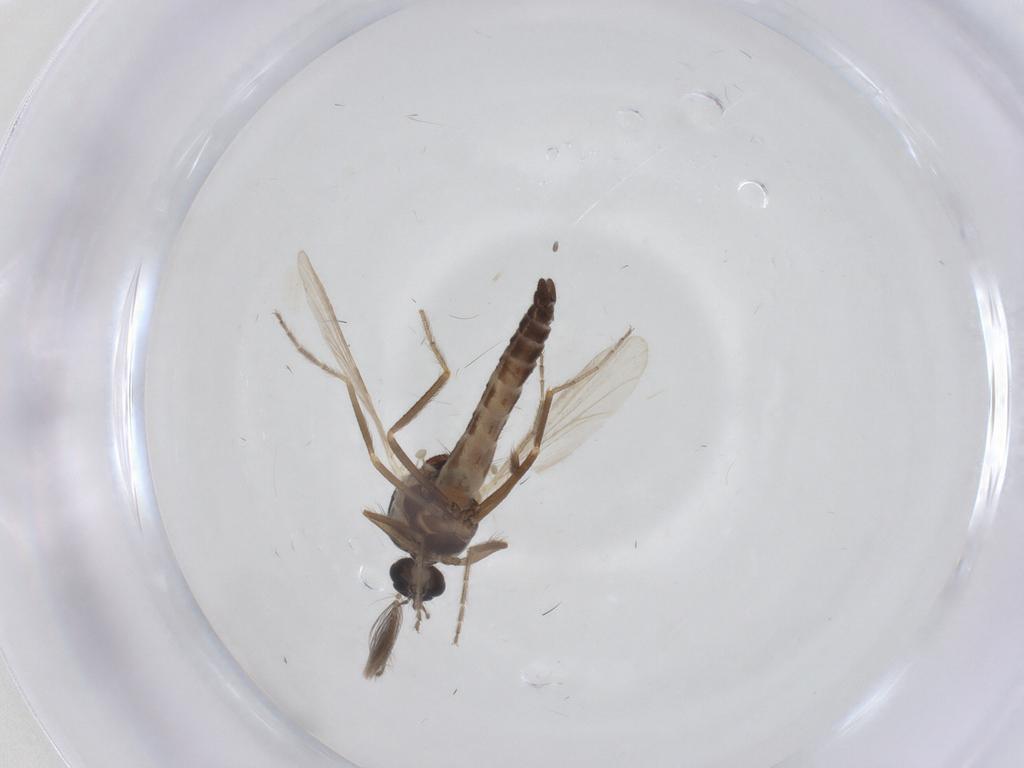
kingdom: Animalia
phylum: Arthropoda
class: Insecta
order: Diptera
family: Ceratopogonidae
